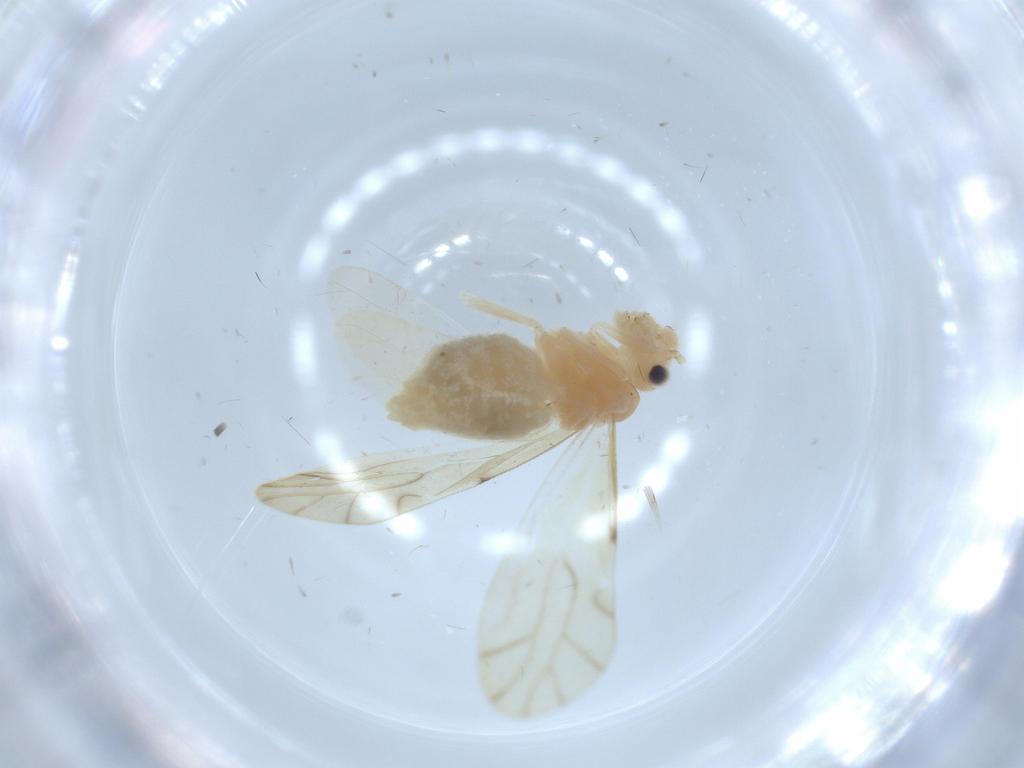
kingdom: Animalia
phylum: Arthropoda
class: Insecta
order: Psocodea
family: Caeciliusidae
